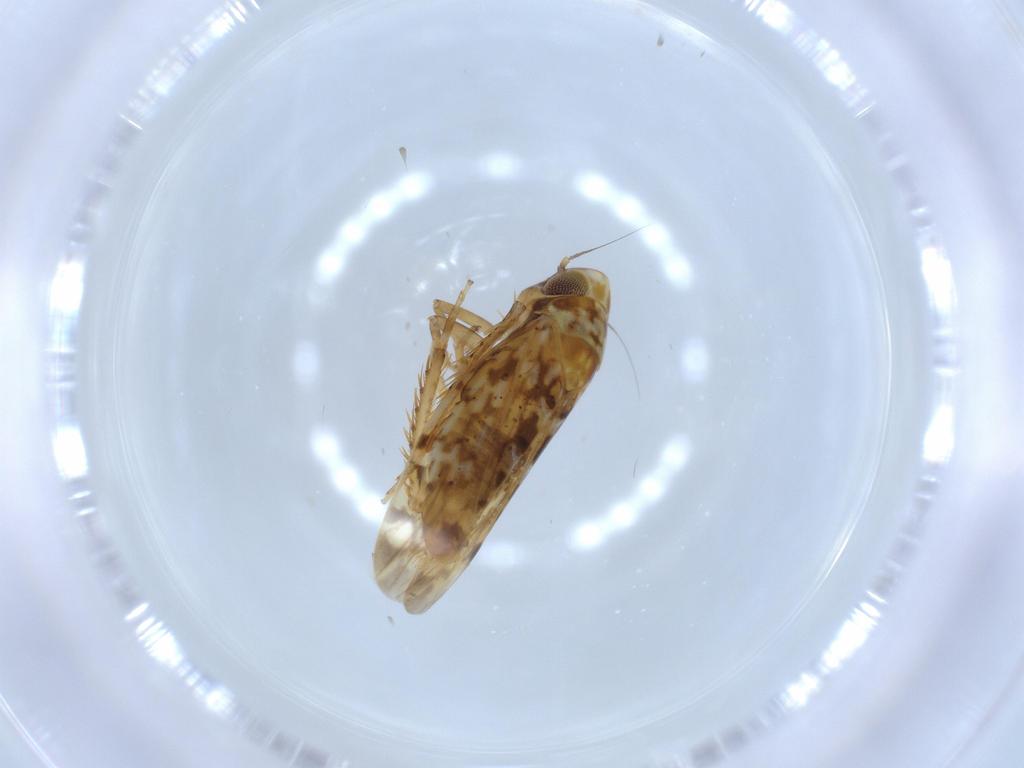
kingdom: Animalia
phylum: Arthropoda
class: Insecta
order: Hemiptera
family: Cicadellidae
